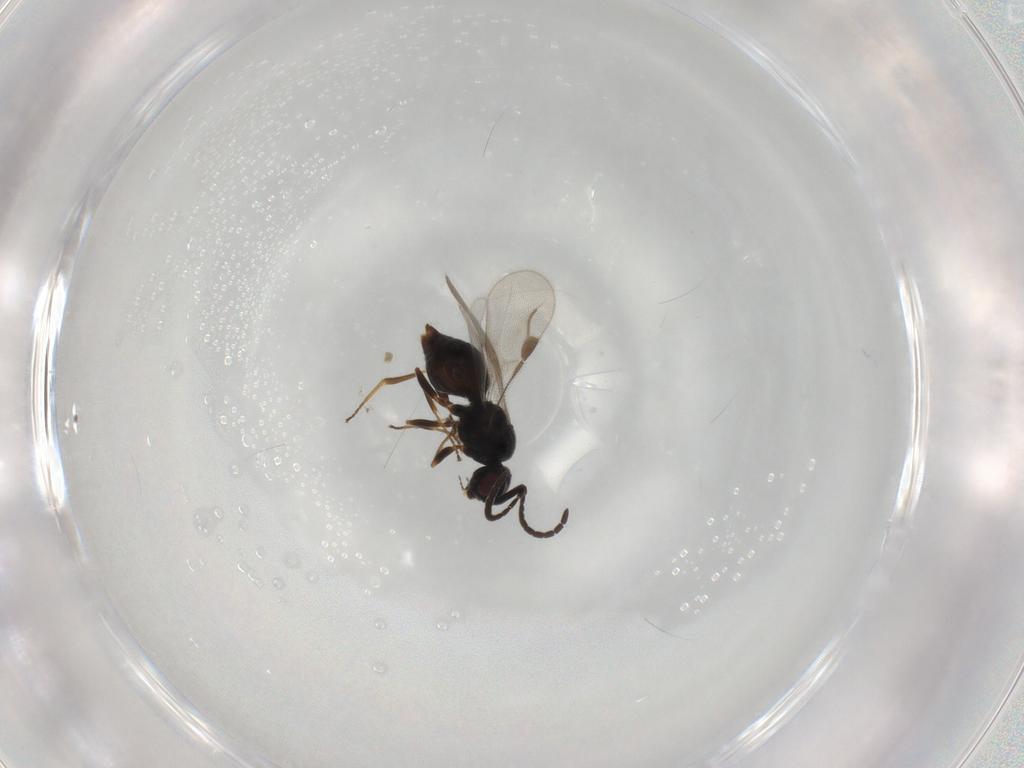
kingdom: Animalia
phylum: Arthropoda
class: Insecta
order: Hymenoptera
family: Megaspilidae
